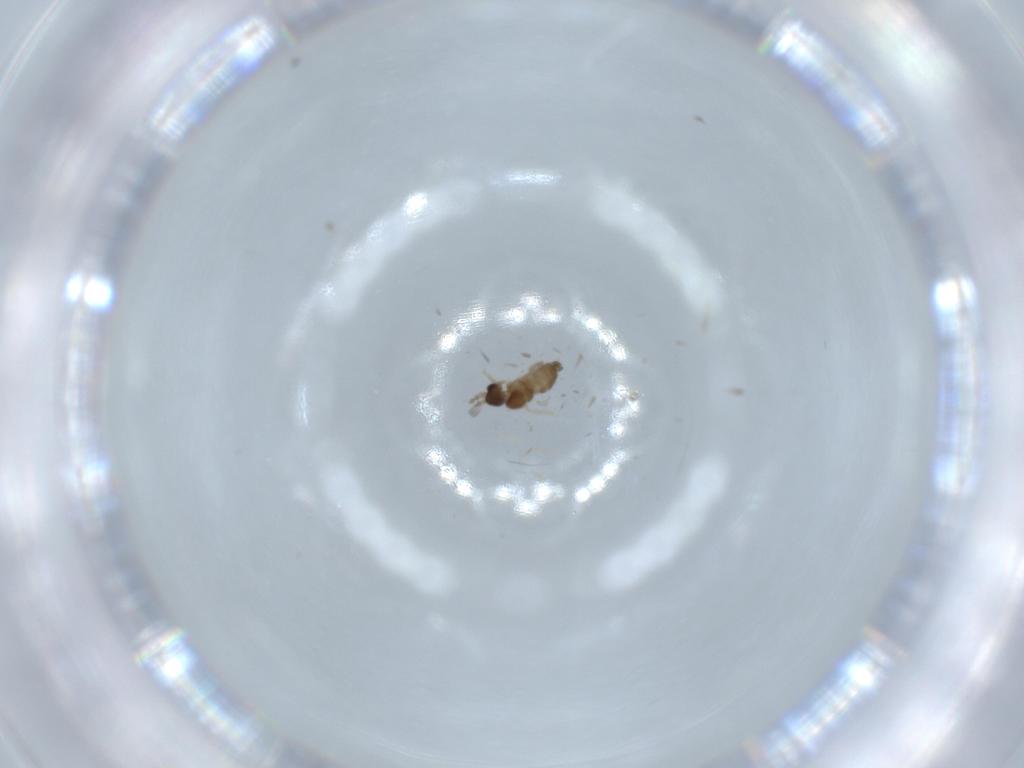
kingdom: Animalia
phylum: Arthropoda
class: Insecta
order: Diptera
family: Cecidomyiidae
